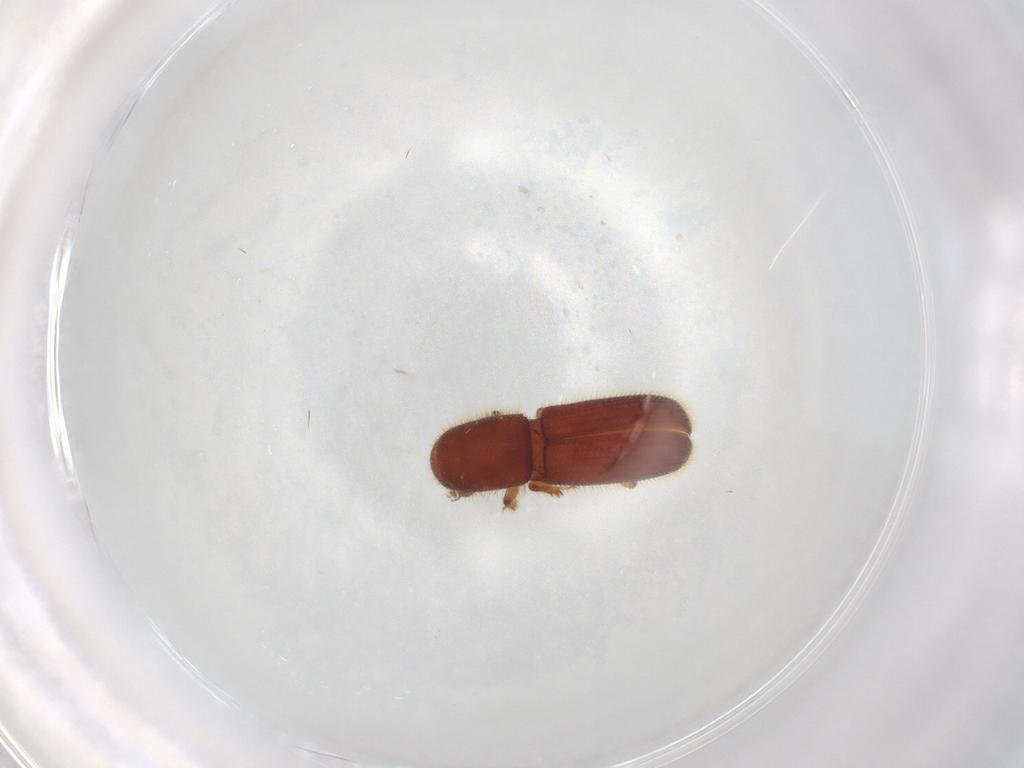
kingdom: Animalia
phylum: Arthropoda
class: Insecta
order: Coleoptera
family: Curculionidae
